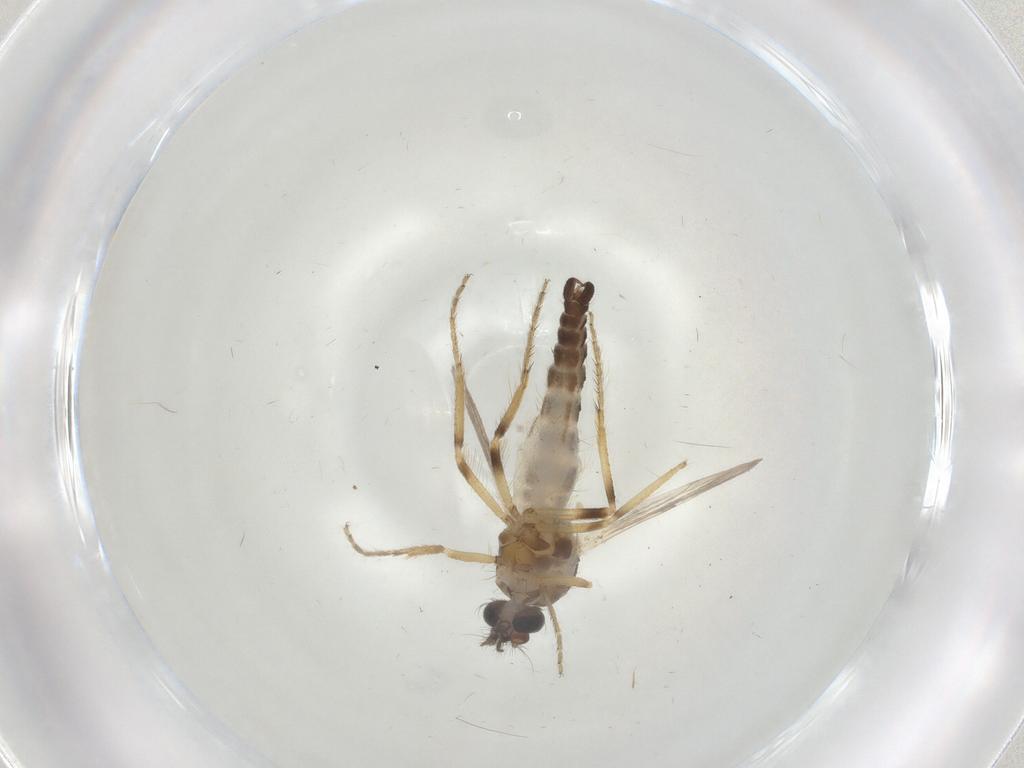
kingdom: Animalia
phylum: Arthropoda
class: Insecta
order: Diptera
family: Ceratopogonidae
